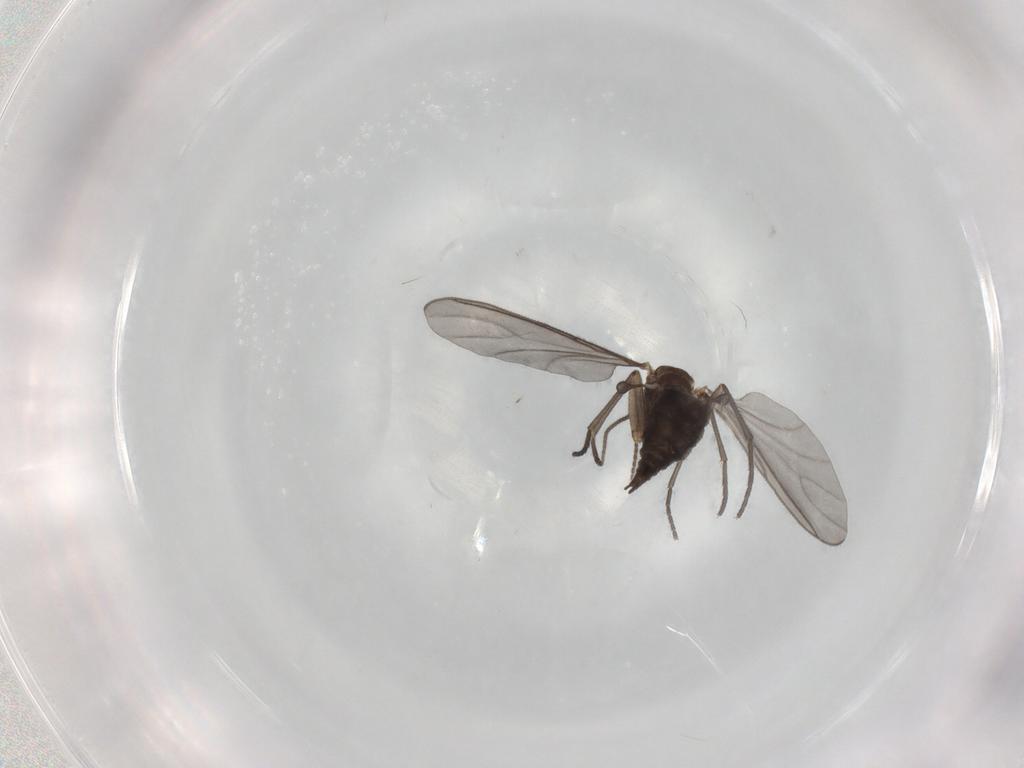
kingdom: Animalia
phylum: Arthropoda
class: Insecta
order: Diptera
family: Sciaridae
